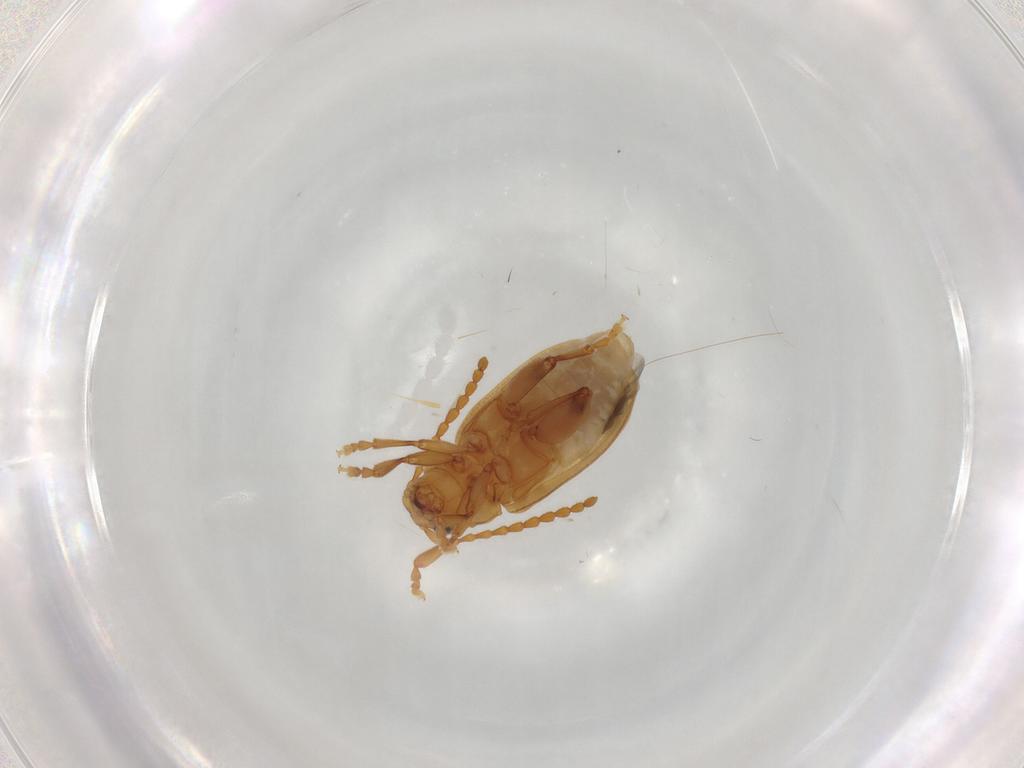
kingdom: Animalia
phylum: Arthropoda
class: Insecta
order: Coleoptera
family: Chrysomelidae
